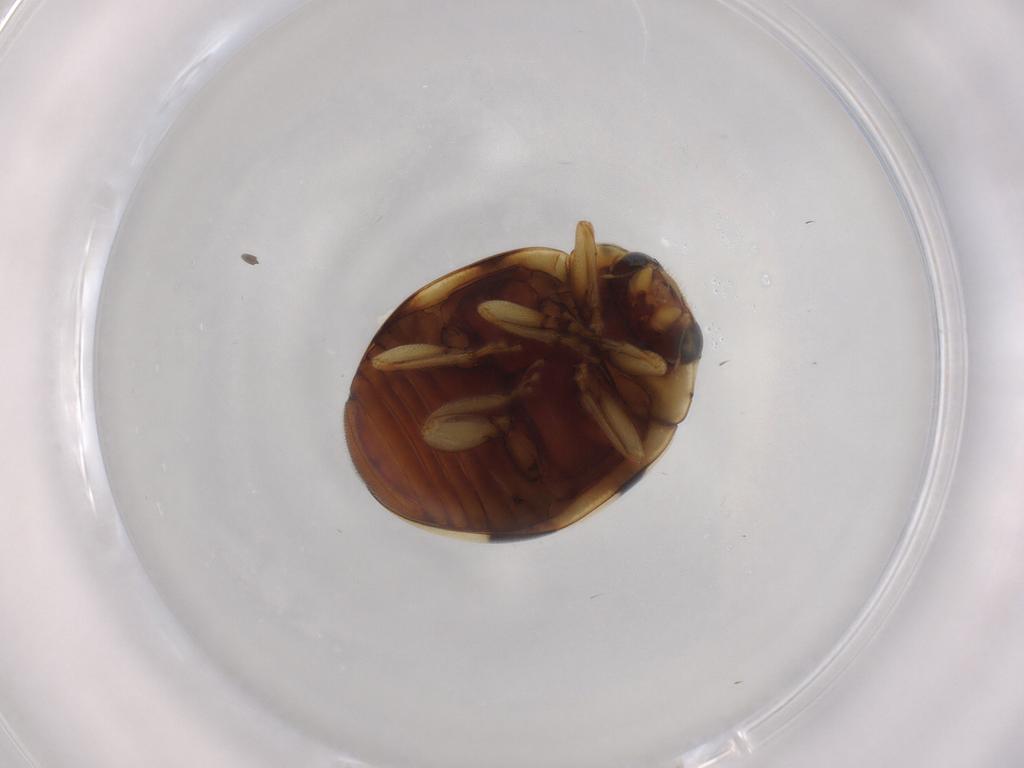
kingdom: Animalia
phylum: Arthropoda
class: Insecta
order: Coleoptera
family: Coccinellidae
